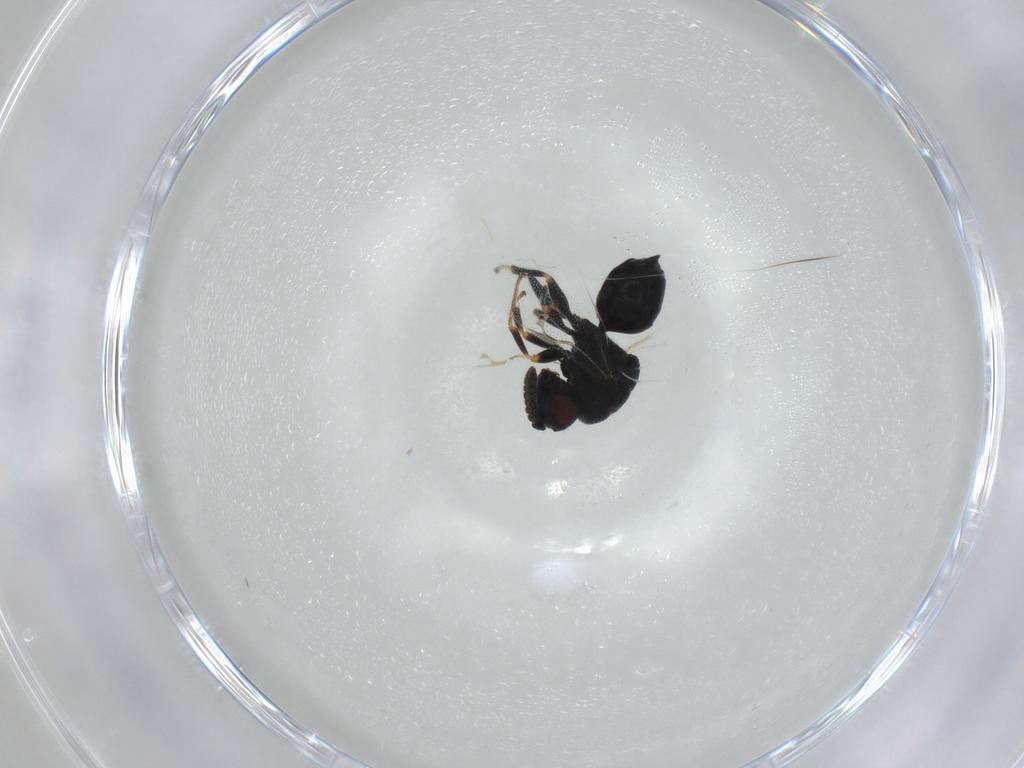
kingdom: Animalia
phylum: Arthropoda
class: Insecta
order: Hymenoptera
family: Eurytomidae
